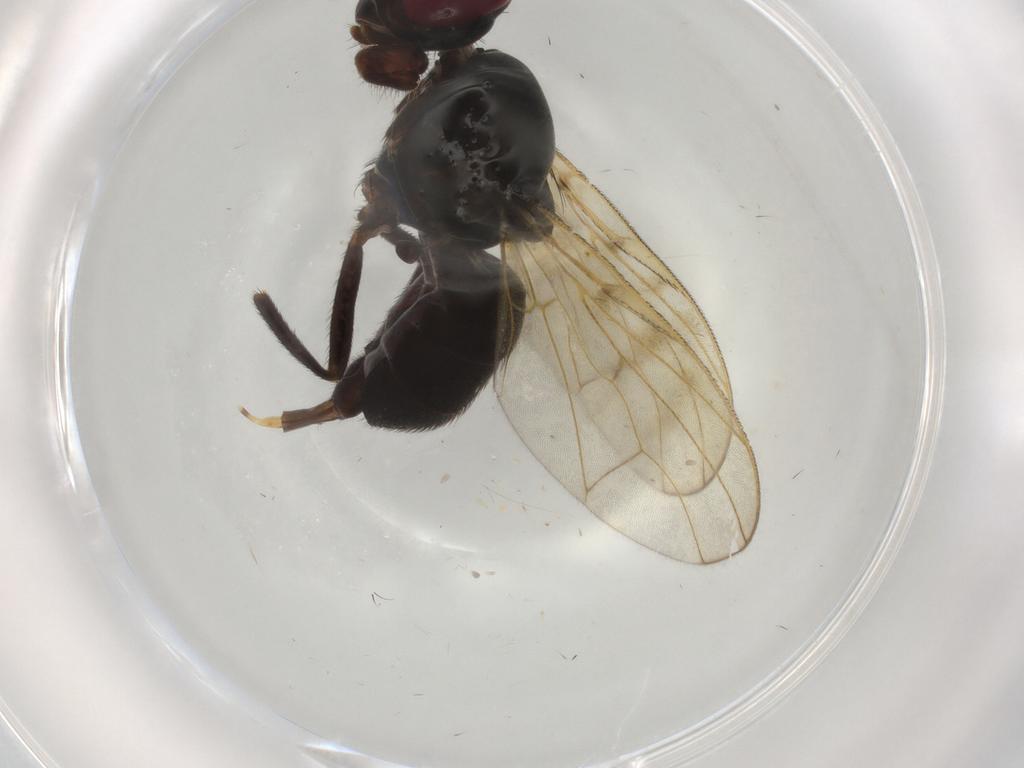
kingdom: Animalia
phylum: Arthropoda
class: Insecta
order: Diptera
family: Platystomatidae
